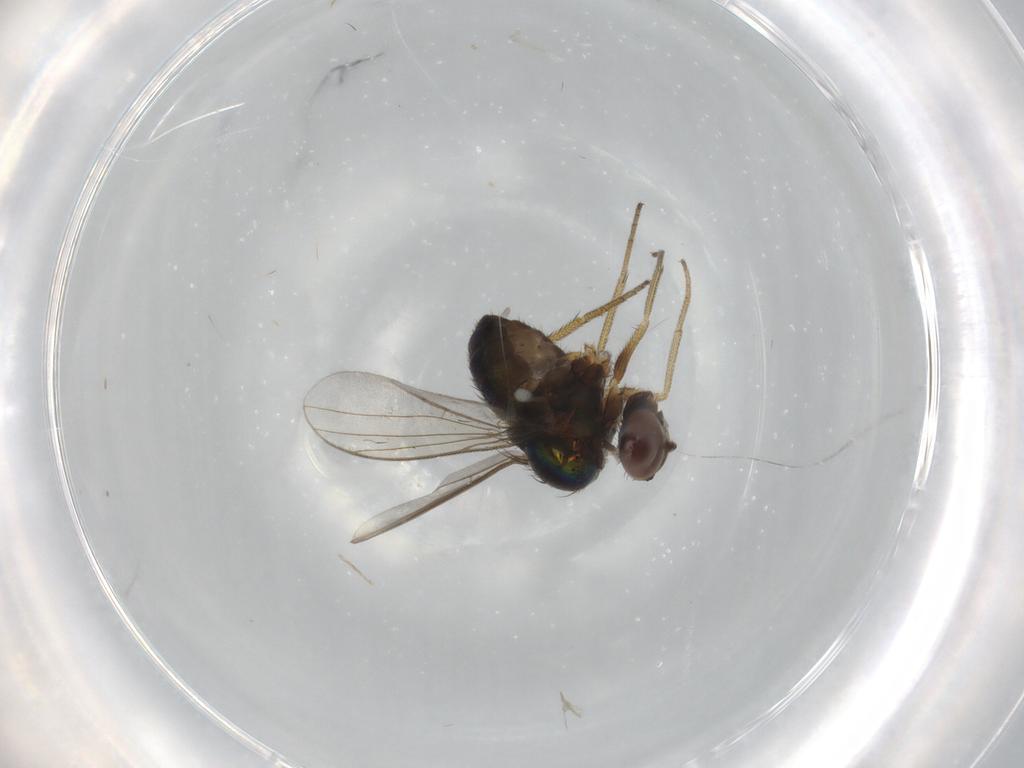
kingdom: Animalia
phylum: Arthropoda
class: Insecta
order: Diptera
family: Dolichopodidae
